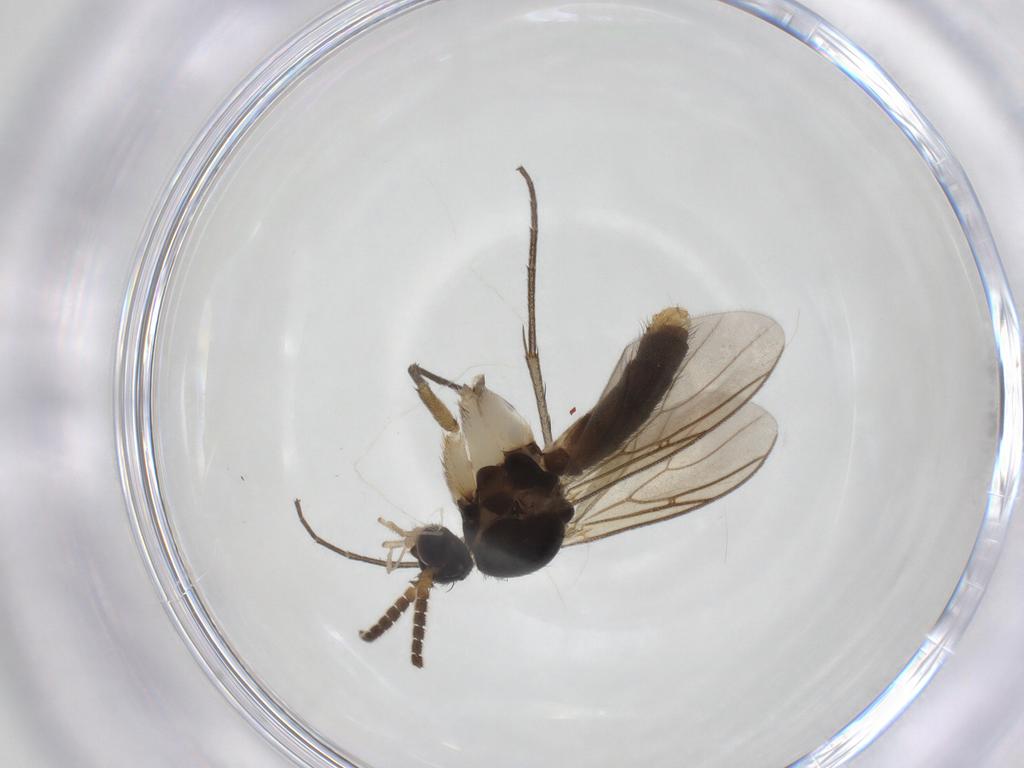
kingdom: Animalia
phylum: Arthropoda
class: Insecta
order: Diptera
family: Mycetophilidae
